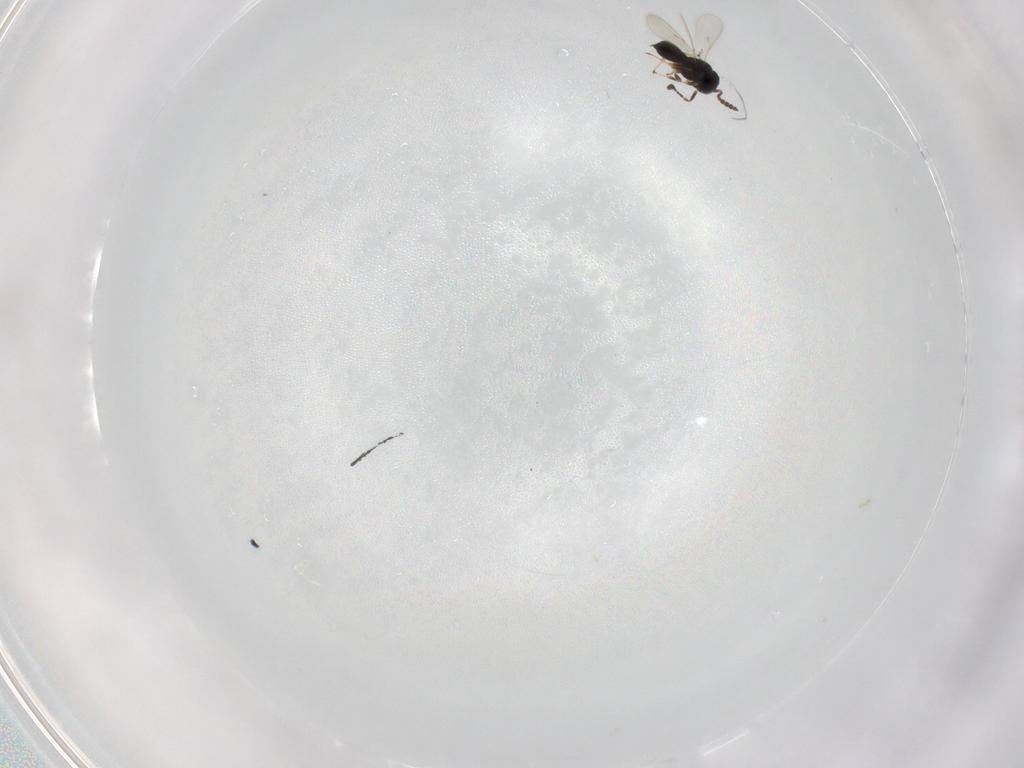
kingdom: Animalia
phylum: Arthropoda
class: Insecta
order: Hymenoptera
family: Scelionidae
